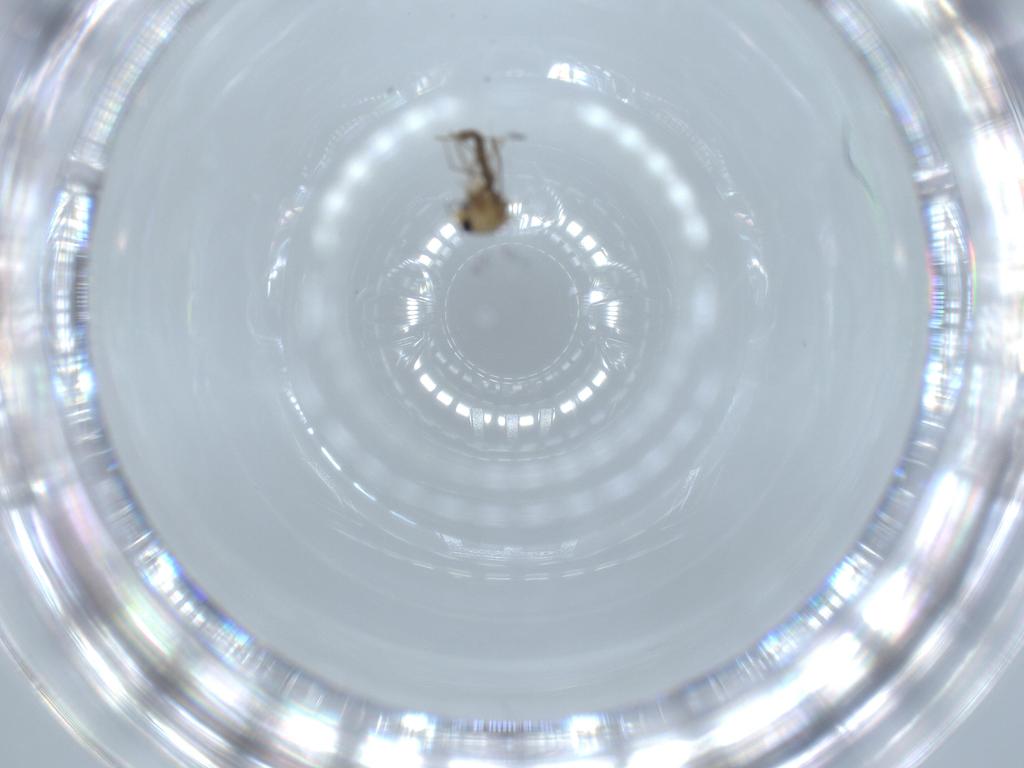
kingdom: Animalia
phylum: Arthropoda
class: Insecta
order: Diptera
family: Chironomidae
